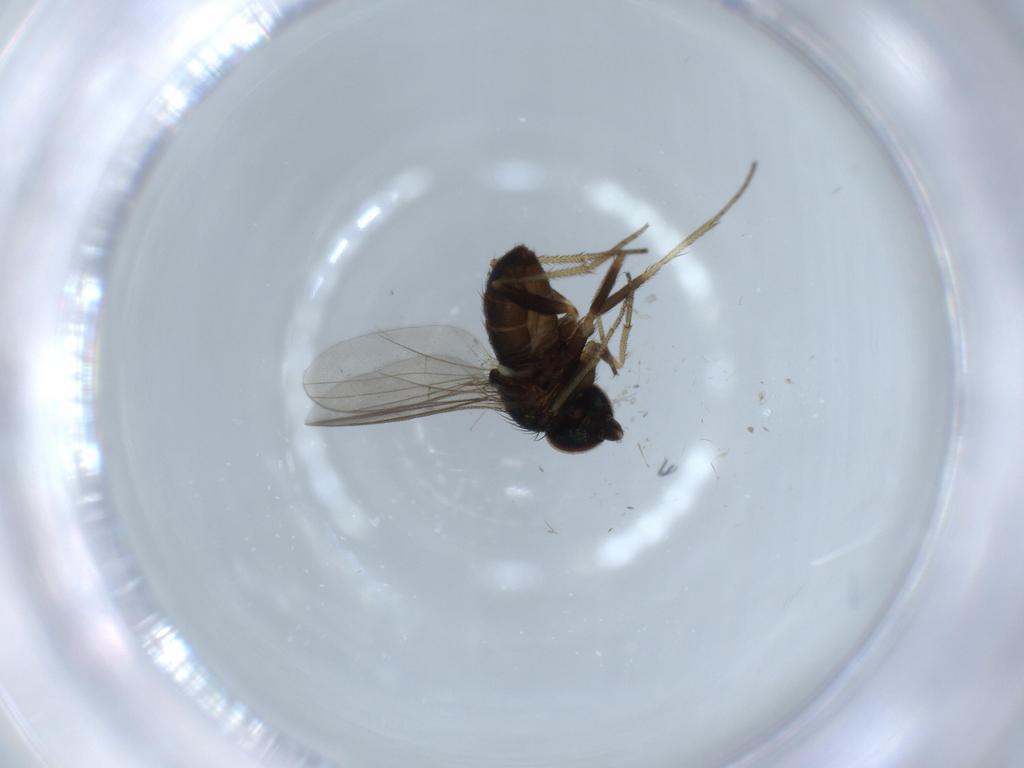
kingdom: Animalia
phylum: Arthropoda
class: Insecta
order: Diptera
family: Dolichopodidae
